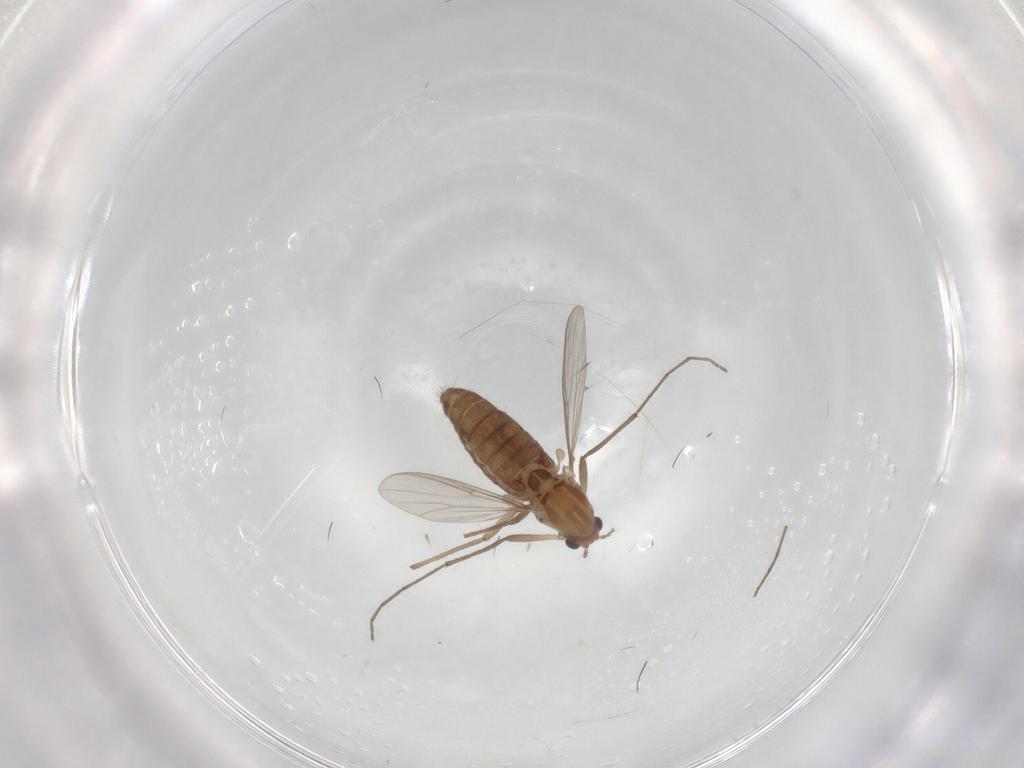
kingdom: Animalia
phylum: Arthropoda
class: Insecta
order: Diptera
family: Chironomidae
